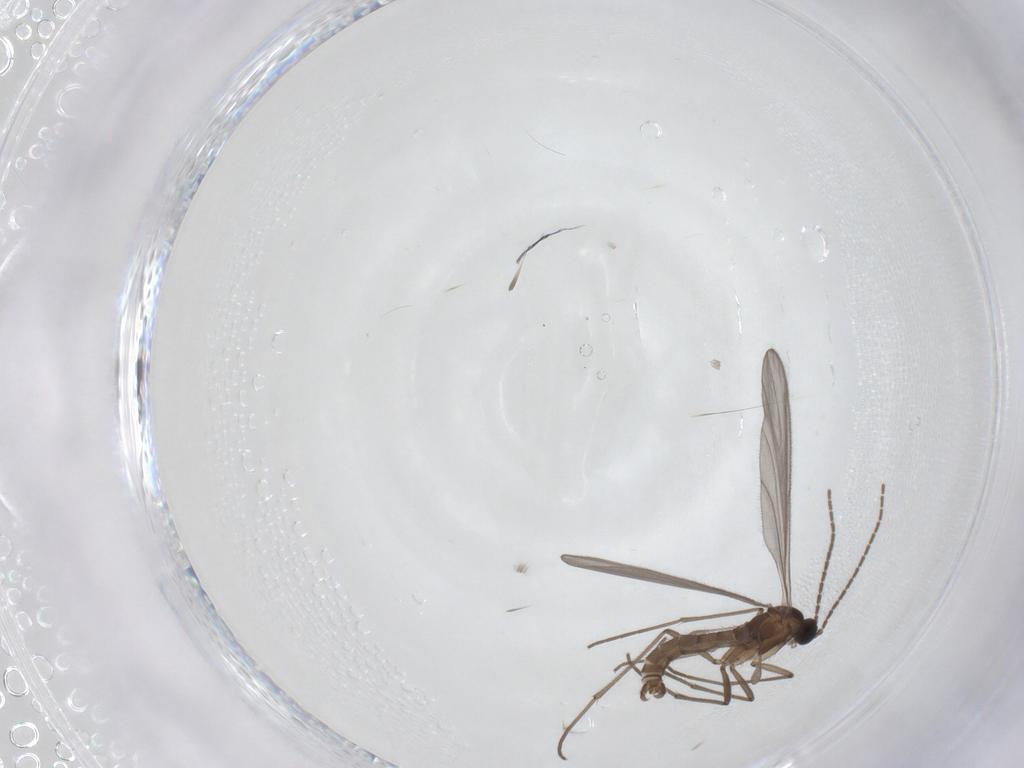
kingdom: Animalia
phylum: Arthropoda
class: Insecta
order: Diptera
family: Sciaridae
